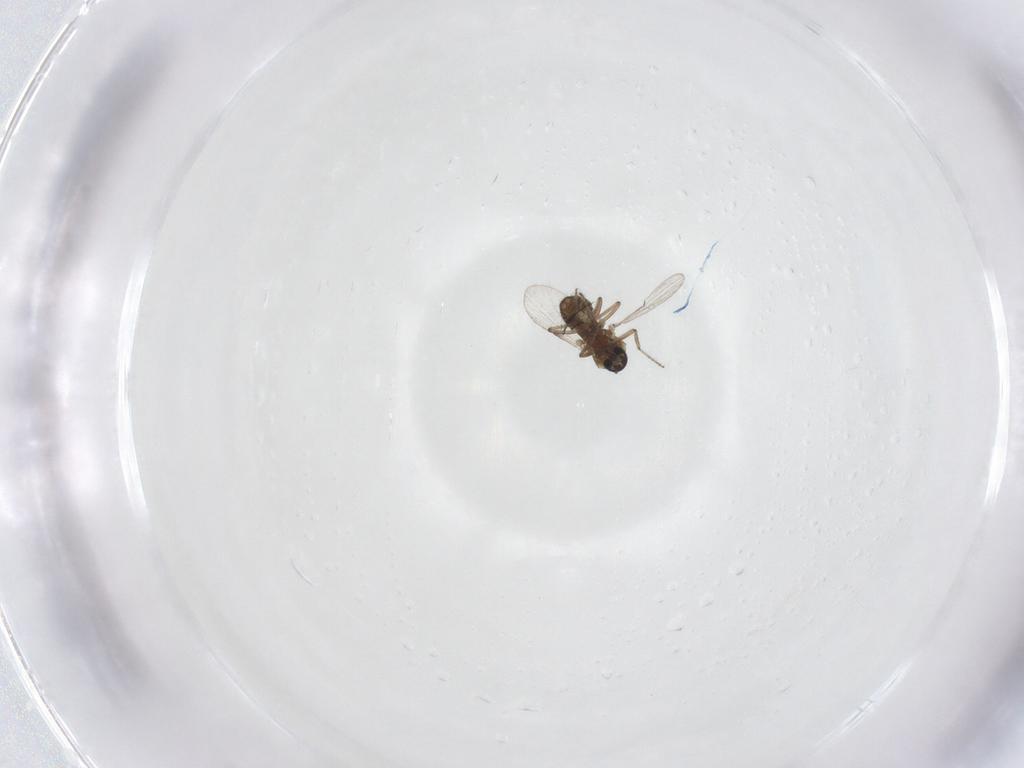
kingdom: Animalia
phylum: Arthropoda
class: Insecta
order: Diptera
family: Ceratopogonidae
